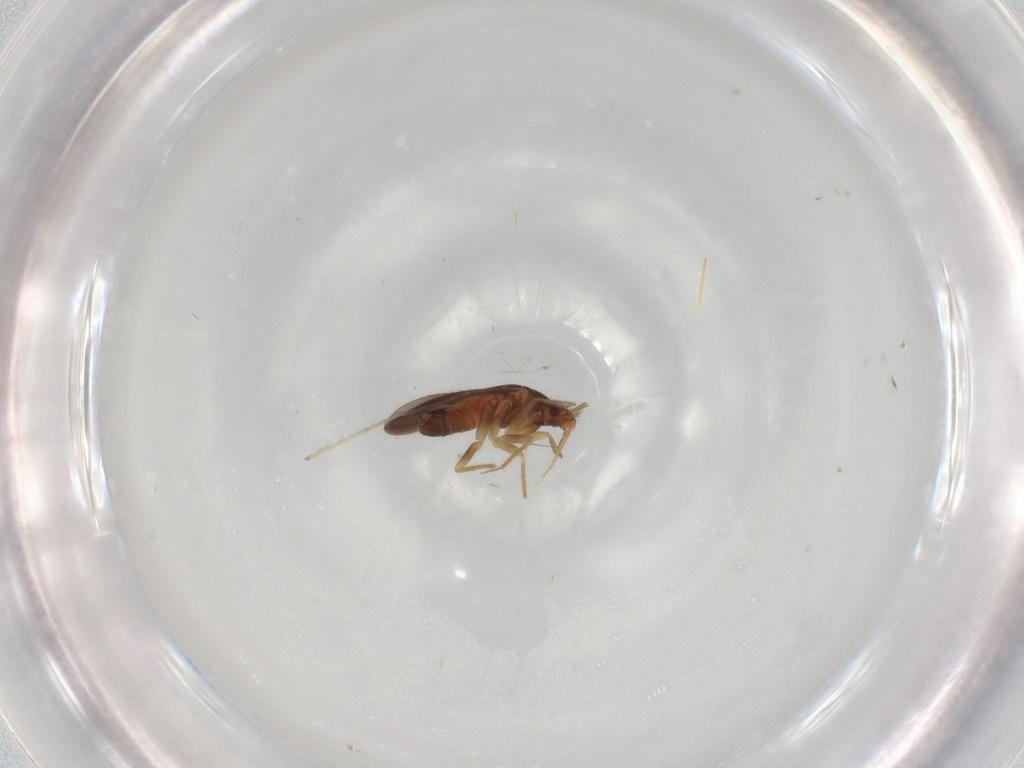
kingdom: Animalia
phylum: Arthropoda
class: Insecta
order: Hemiptera
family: Ceratocombidae
